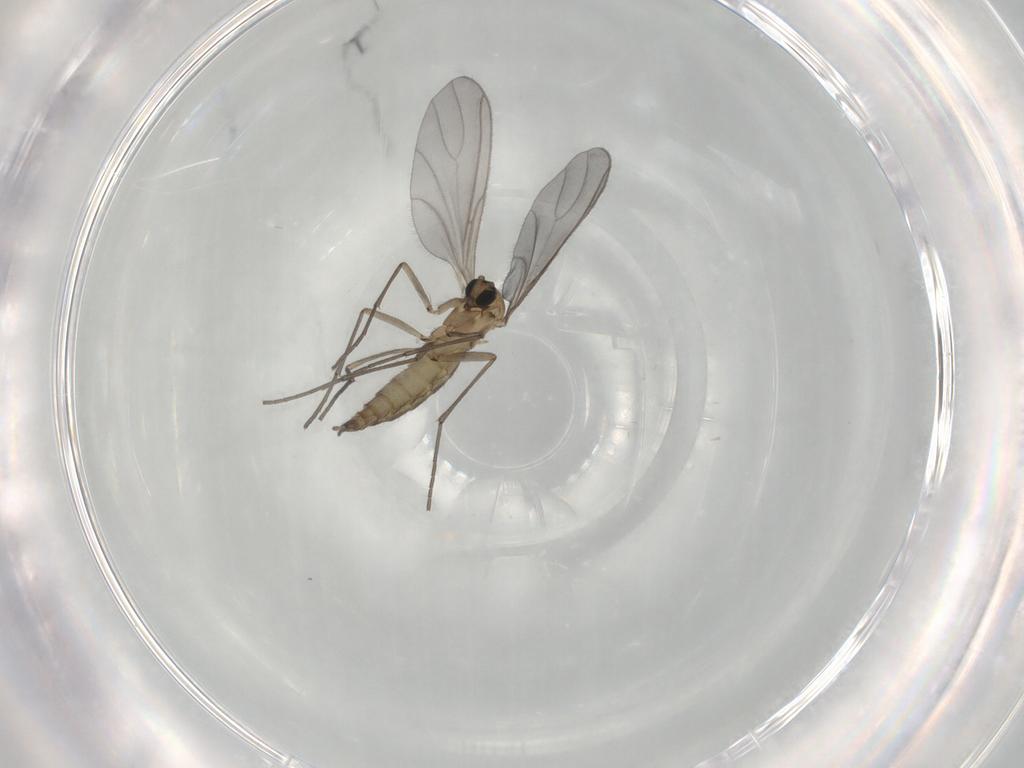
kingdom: Animalia
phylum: Arthropoda
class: Insecta
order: Diptera
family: Sciaridae
